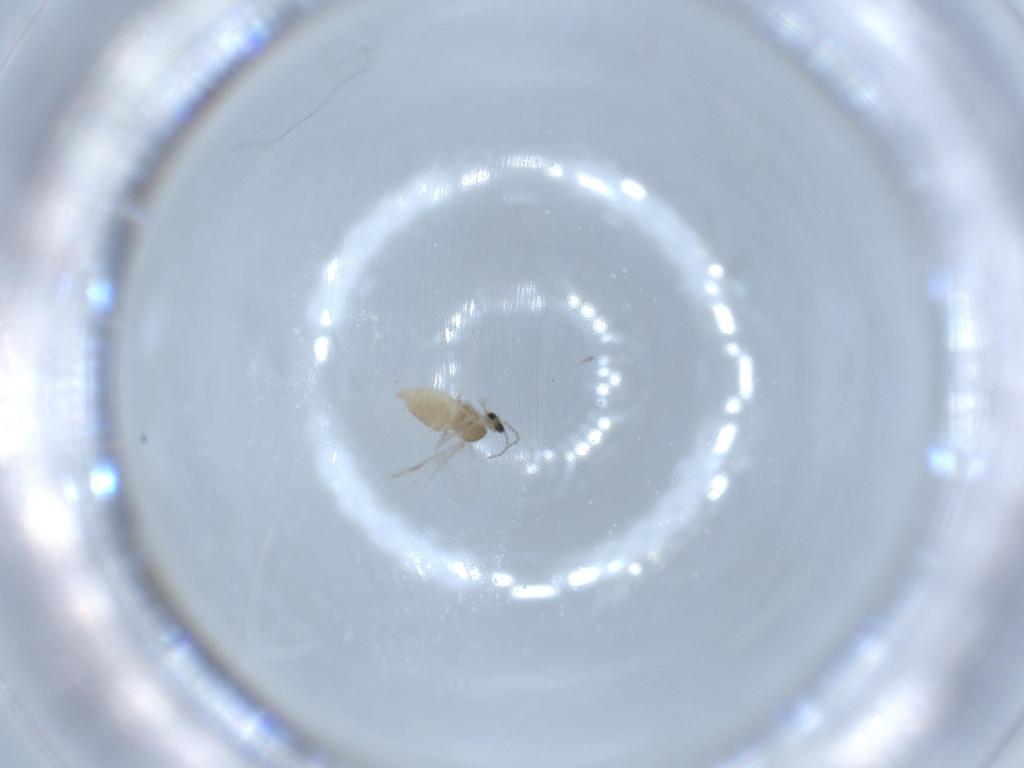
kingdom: Animalia
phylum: Arthropoda
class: Insecta
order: Diptera
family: Cecidomyiidae
